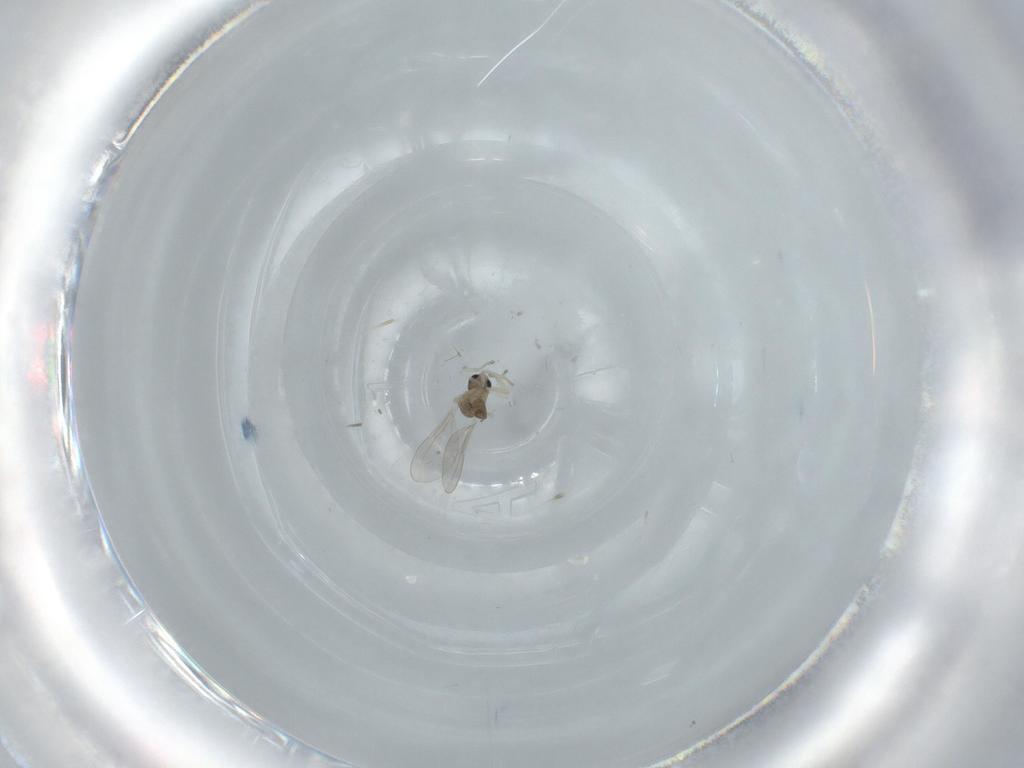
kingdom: Animalia
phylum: Arthropoda
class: Insecta
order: Diptera
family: Cecidomyiidae
